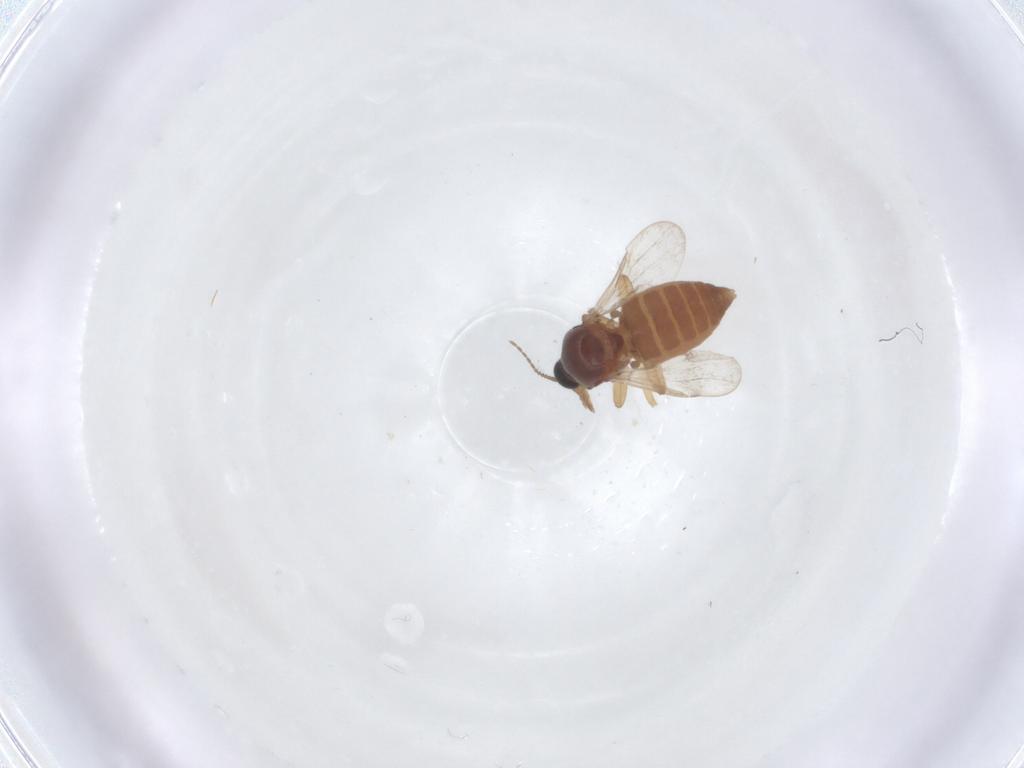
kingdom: Animalia
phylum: Arthropoda
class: Insecta
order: Diptera
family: Ceratopogonidae
